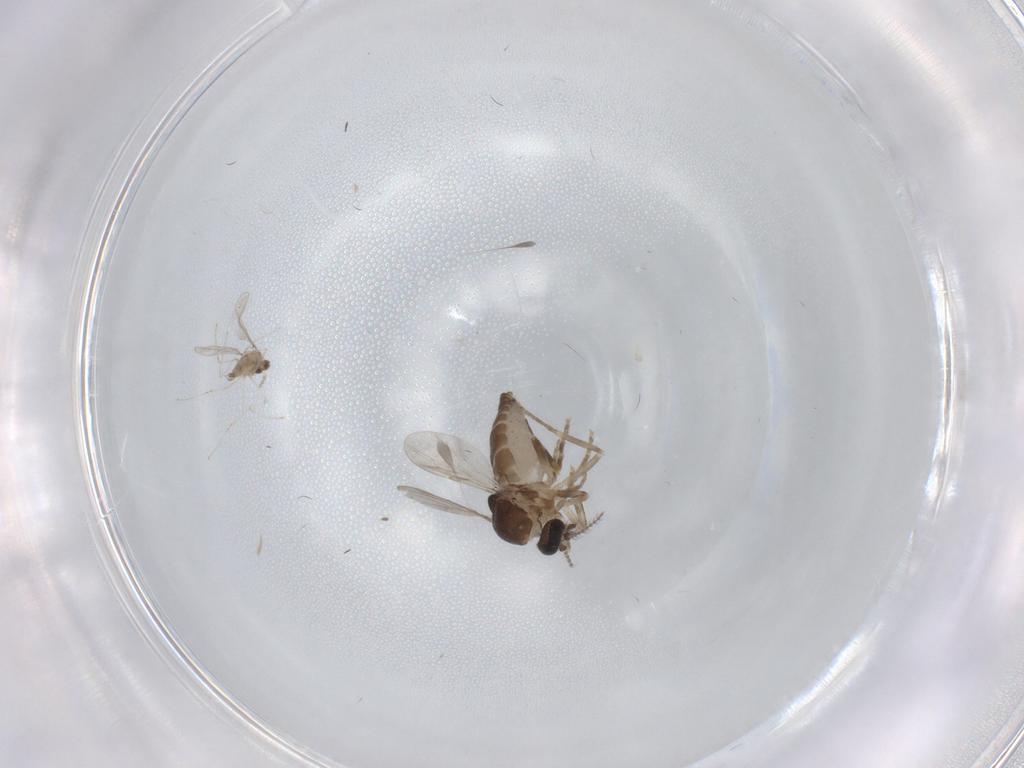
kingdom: Animalia
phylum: Arthropoda
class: Insecta
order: Diptera
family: Ceratopogonidae
